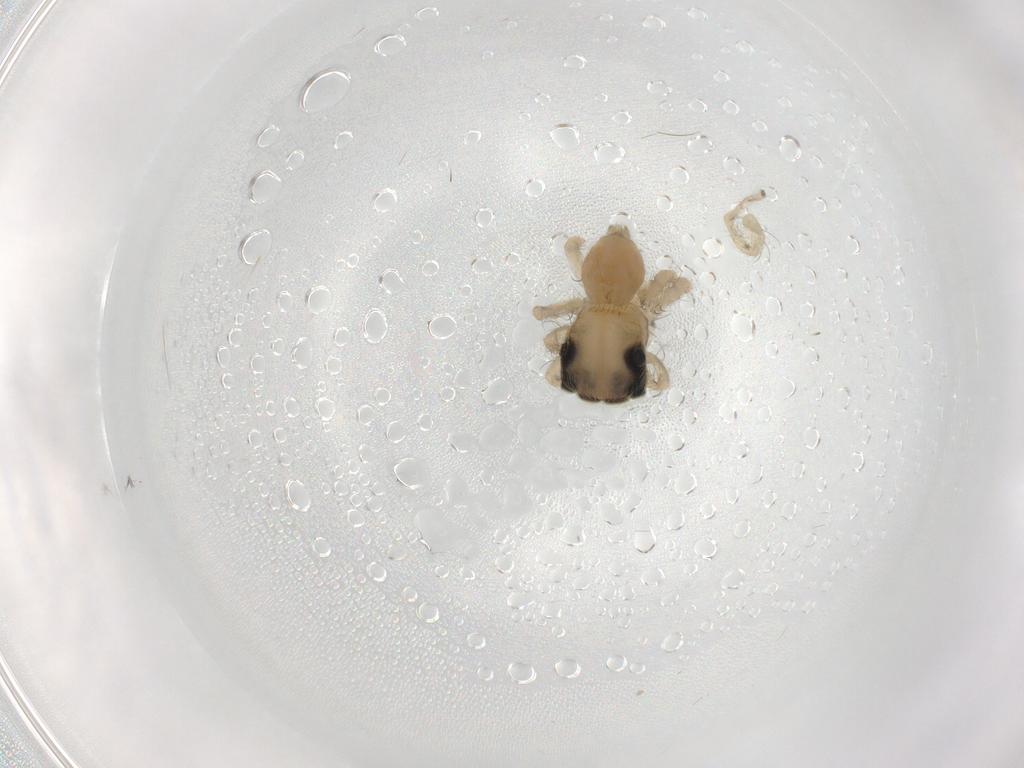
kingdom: Animalia
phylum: Arthropoda
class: Arachnida
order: Araneae
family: Salticidae
